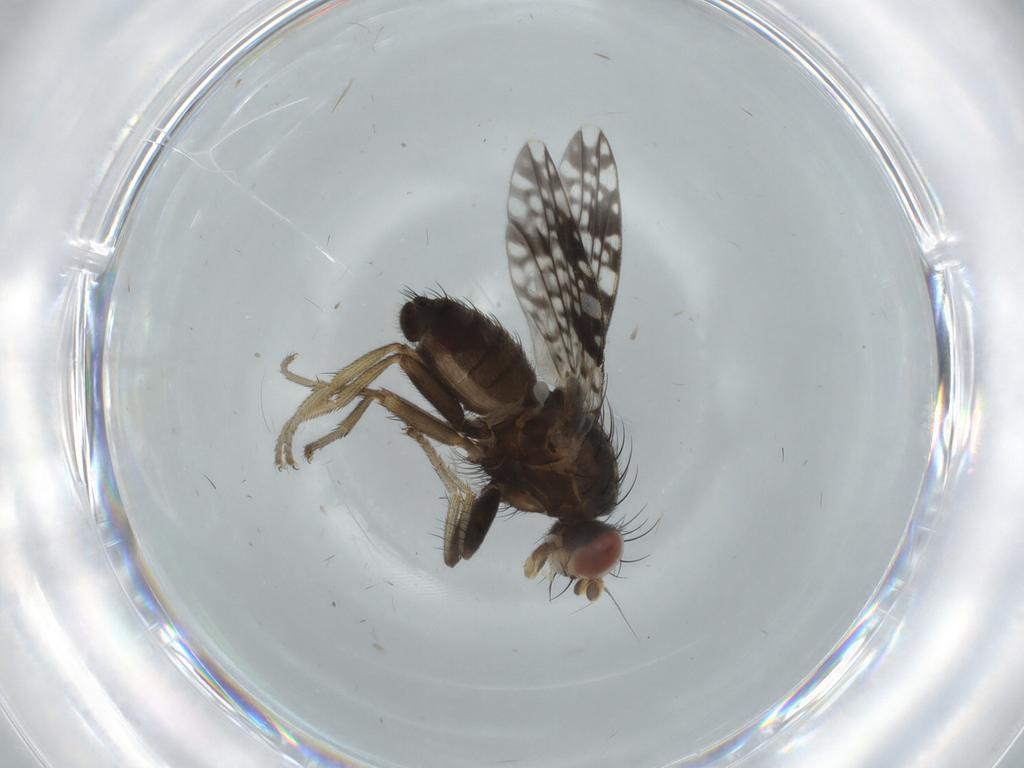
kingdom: Animalia
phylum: Arthropoda
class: Insecta
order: Diptera
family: Tephritidae
